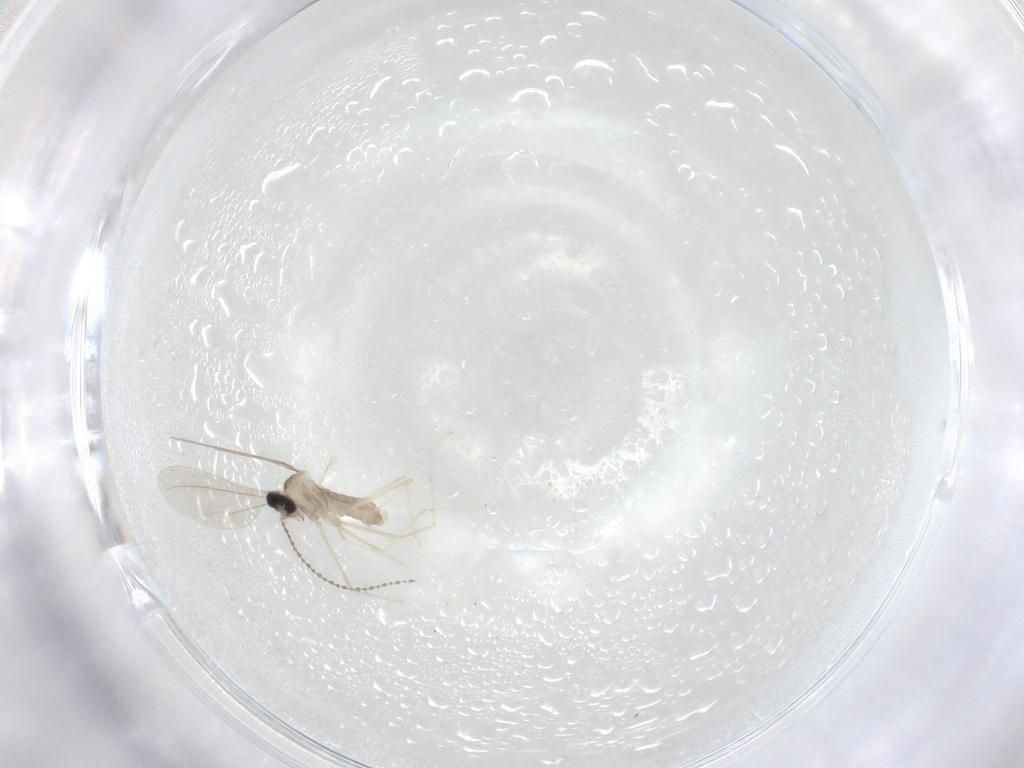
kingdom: Animalia
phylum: Arthropoda
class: Insecta
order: Diptera
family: Cecidomyiidae
